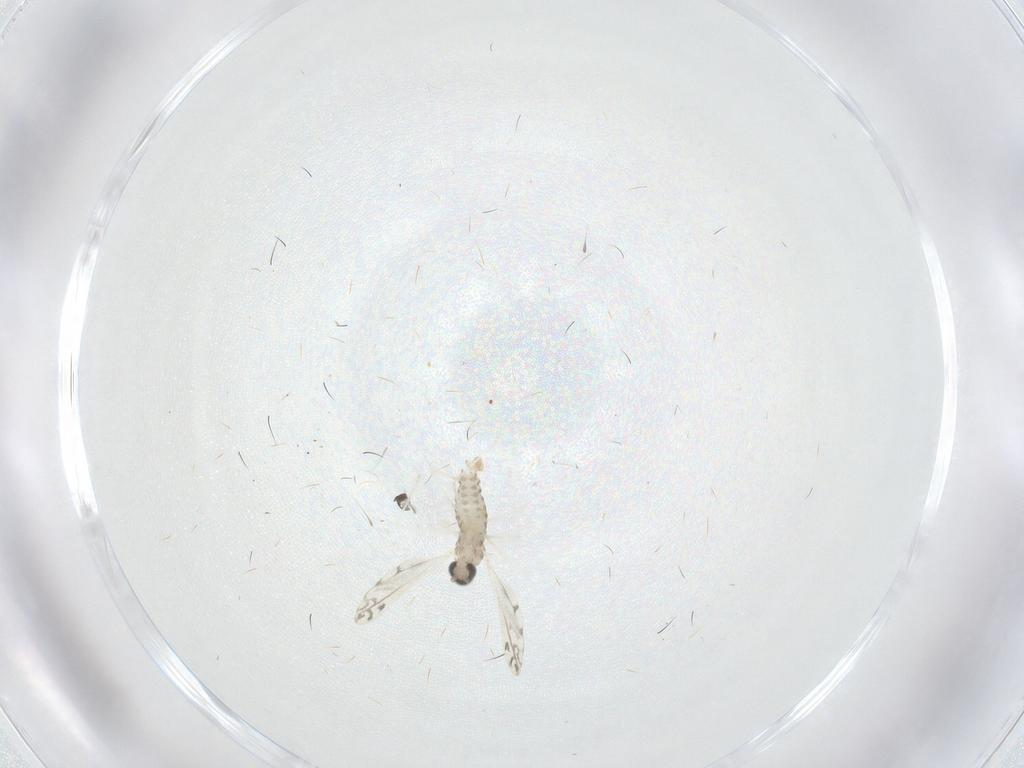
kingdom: Animalia
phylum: Arthropoda
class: Insecta
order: Diptera
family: Cecidomyiidae
